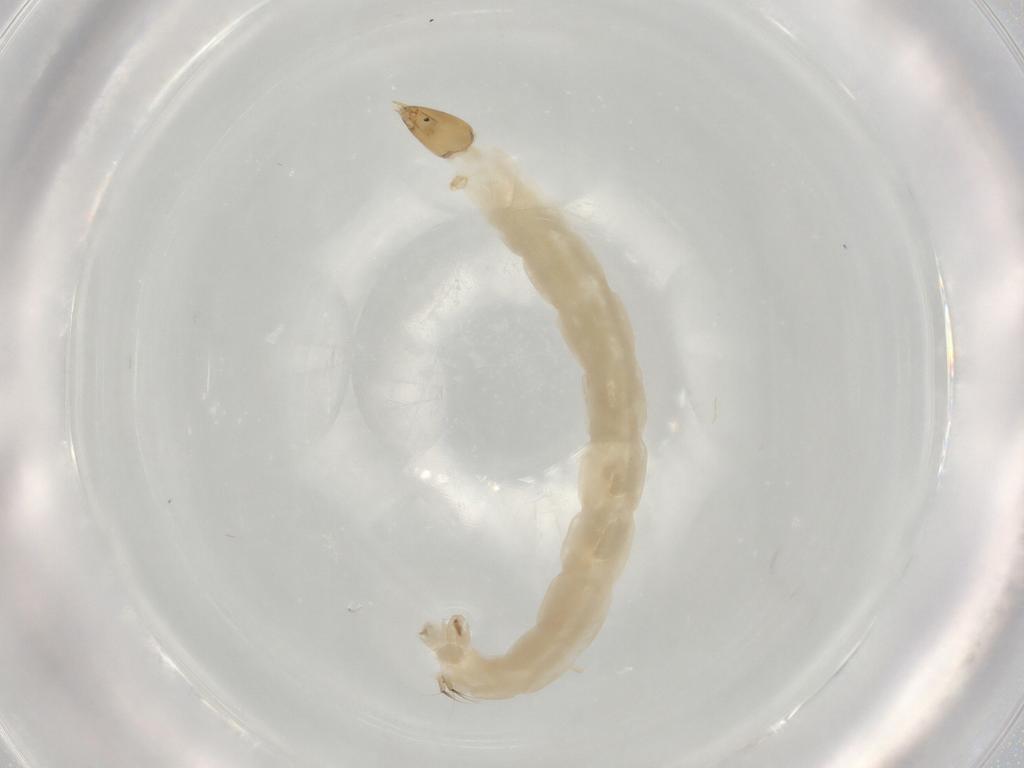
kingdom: Animalia
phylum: Arthropoda
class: Insecta
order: Diptera
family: Chironomidae
